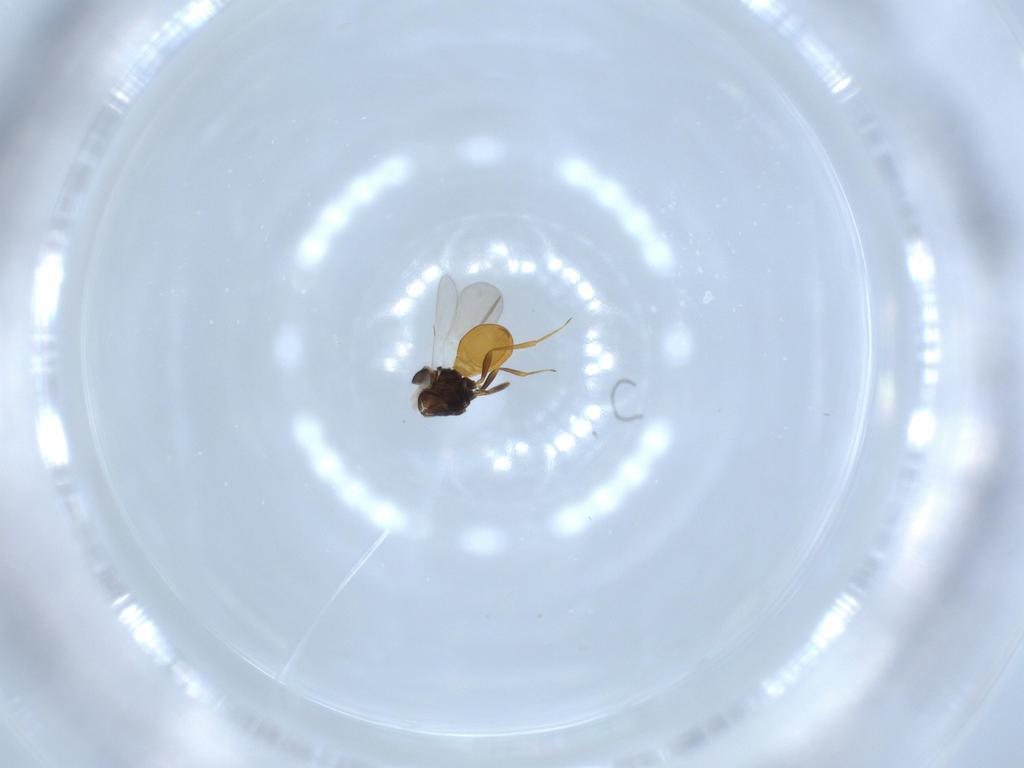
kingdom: Animalia
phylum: Arthropoda
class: Insecta
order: Hymenoptera
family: Scelionidae
